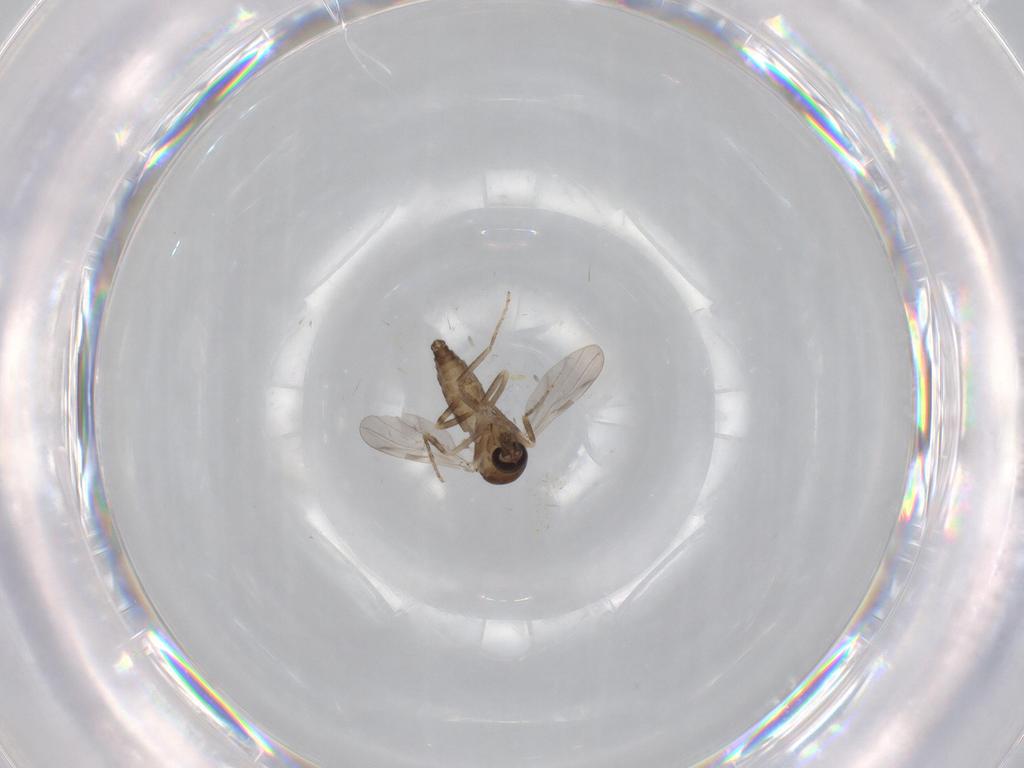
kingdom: Animalia
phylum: Arthropoda
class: Insecta
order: Diptera
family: Ceratopogonidae
